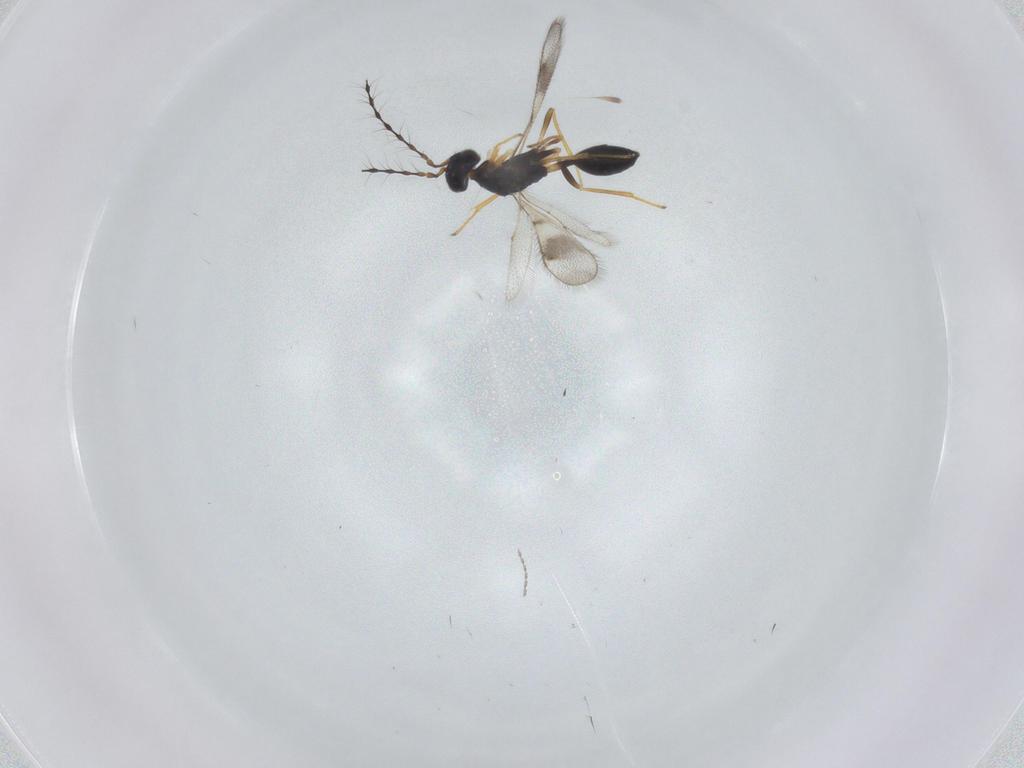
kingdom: Animalia
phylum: Arthropoda
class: Insecta
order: Hymenoptera
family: Diparidae
